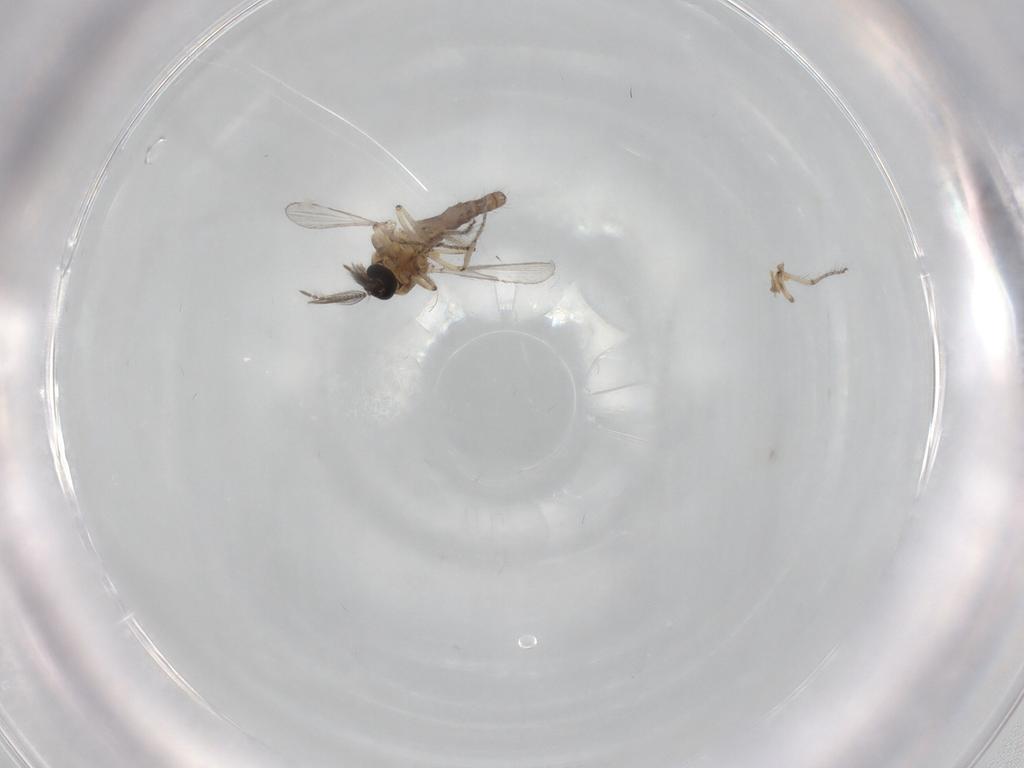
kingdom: Animalia
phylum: Arthropoda
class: Insecta
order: Diptera
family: Ceratopogonidae
